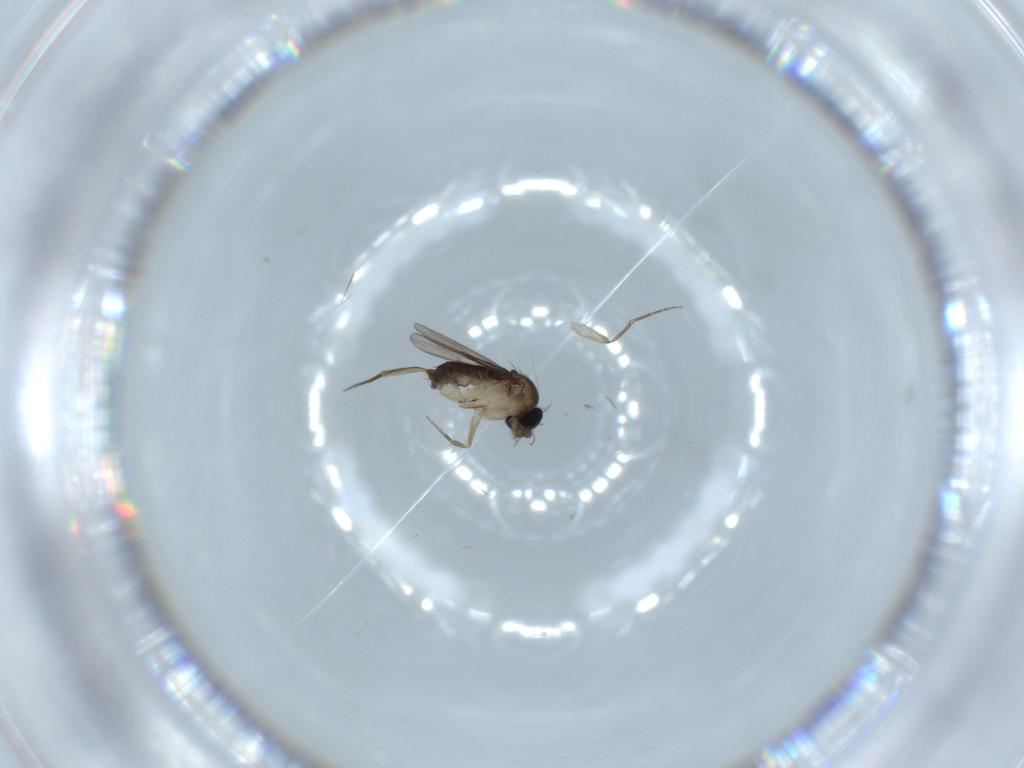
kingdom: Animalia
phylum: Arthropoda
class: Insecta
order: Diptera
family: Phoridae
